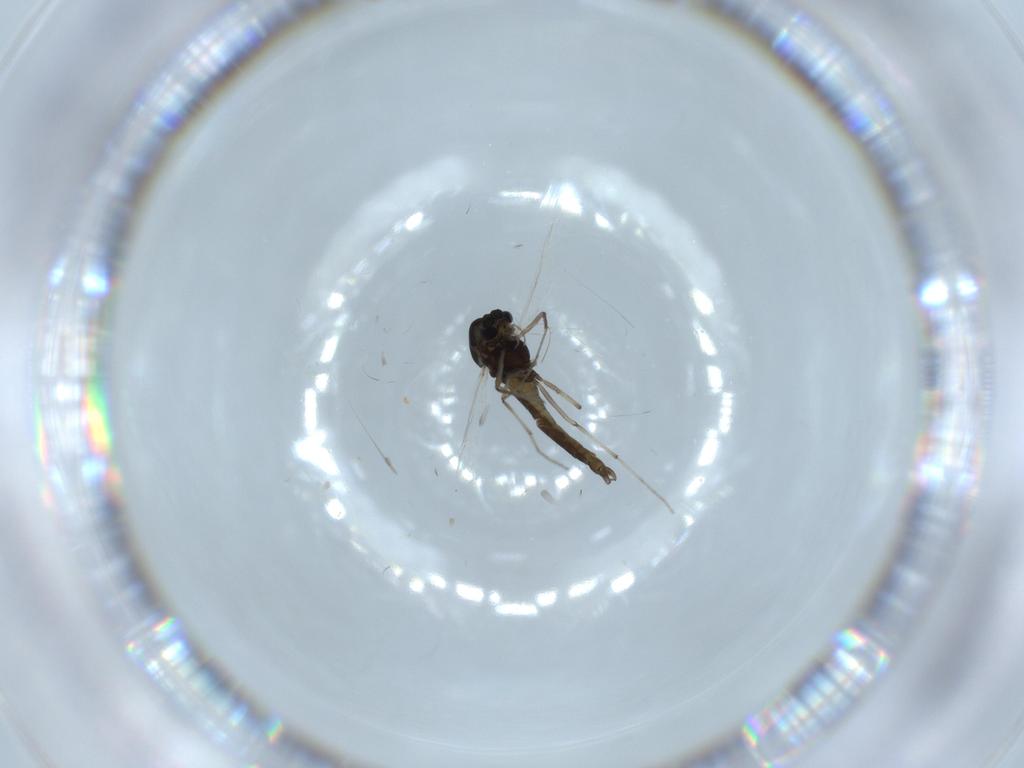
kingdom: Animalia
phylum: Arthropoda
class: Insecta
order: Diptera
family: Chironomidae
